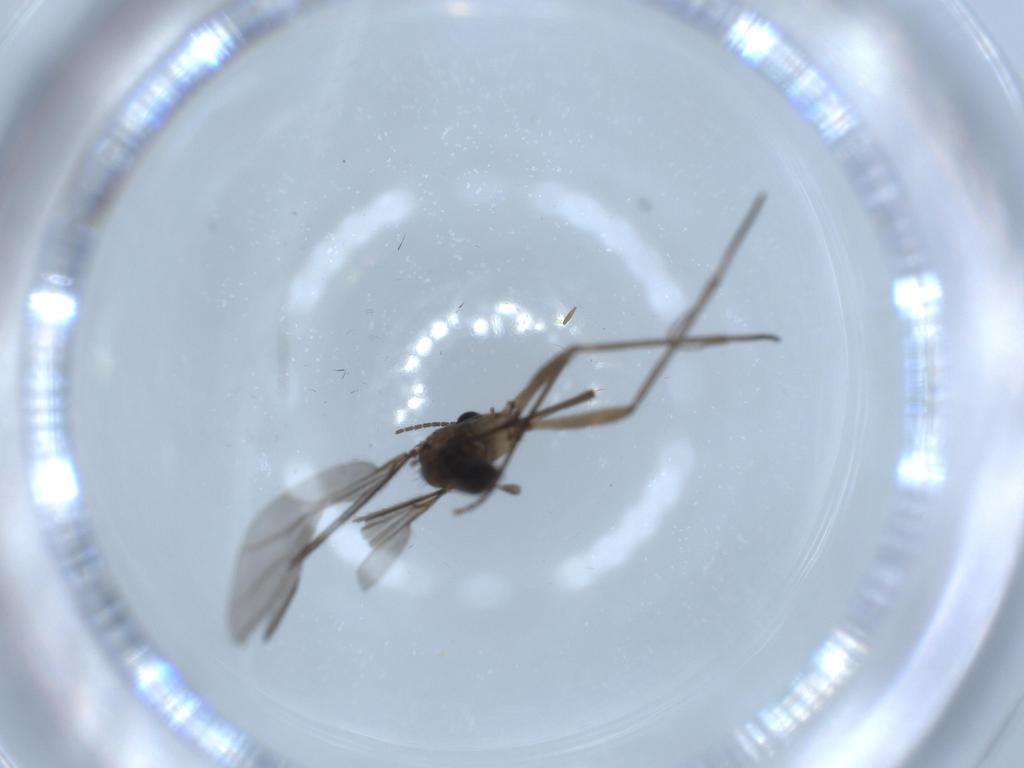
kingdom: Animalia
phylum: Arthropoda
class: Insecta
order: Diptera
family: Sciaridae
